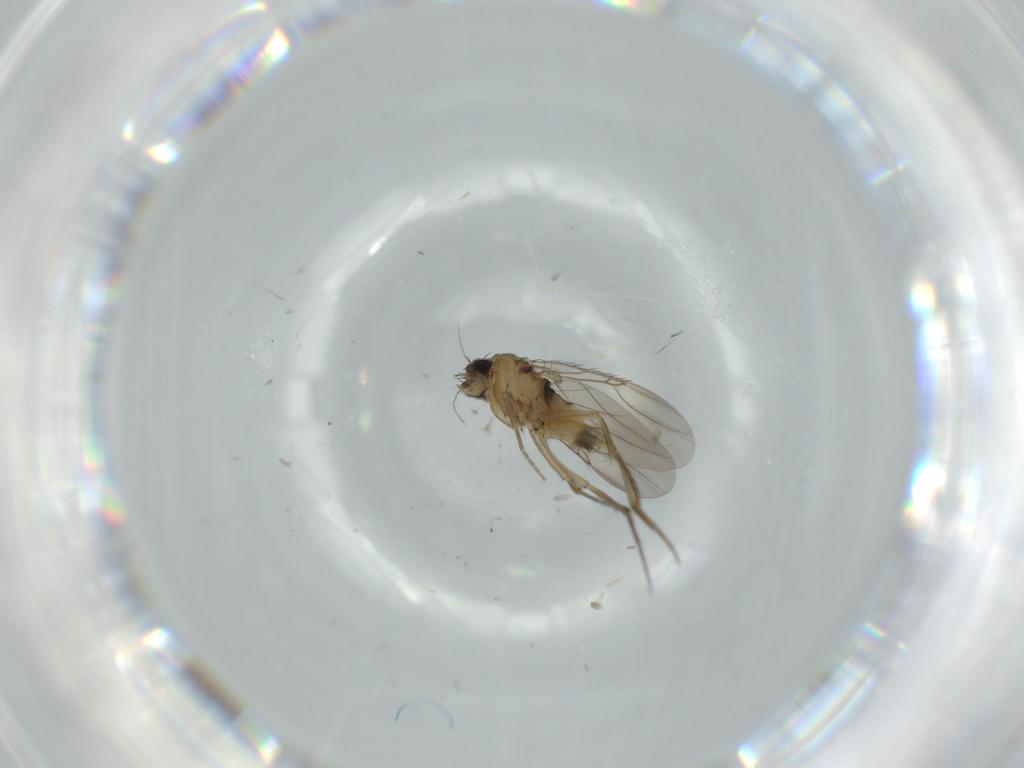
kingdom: Animalia
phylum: Arthropoda
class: Insecta
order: Diptera
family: Phoridae
